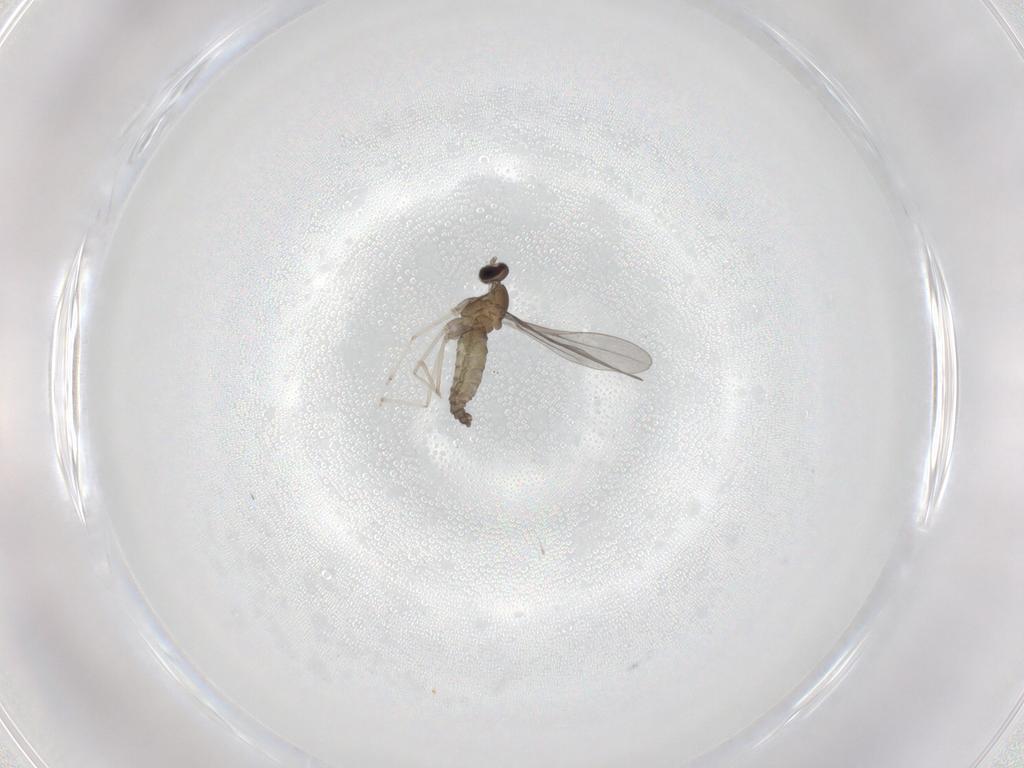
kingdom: Animalia
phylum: Arthropoda
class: Insecta
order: Diptera
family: Cecidomyiidae
